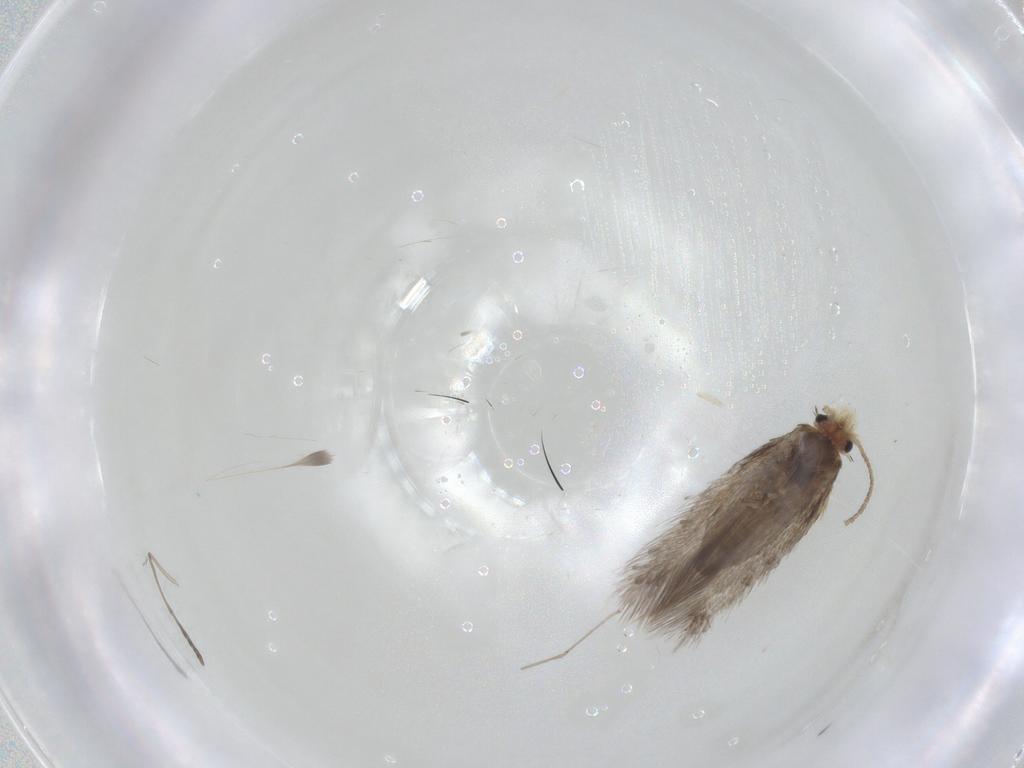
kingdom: Animalia
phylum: Arthropoda
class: Insecta
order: Lepidoptera
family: Nepticulidae
